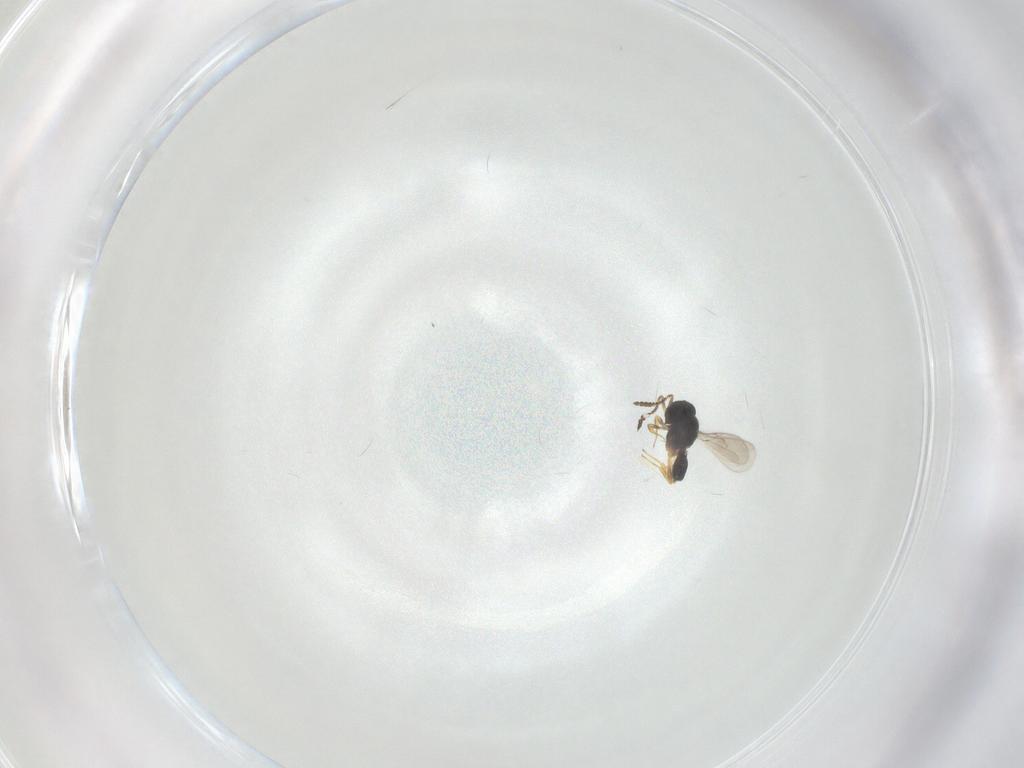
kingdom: Animalia
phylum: Arthropoda
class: Insecta
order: Hymenoptera
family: Scelionidae
